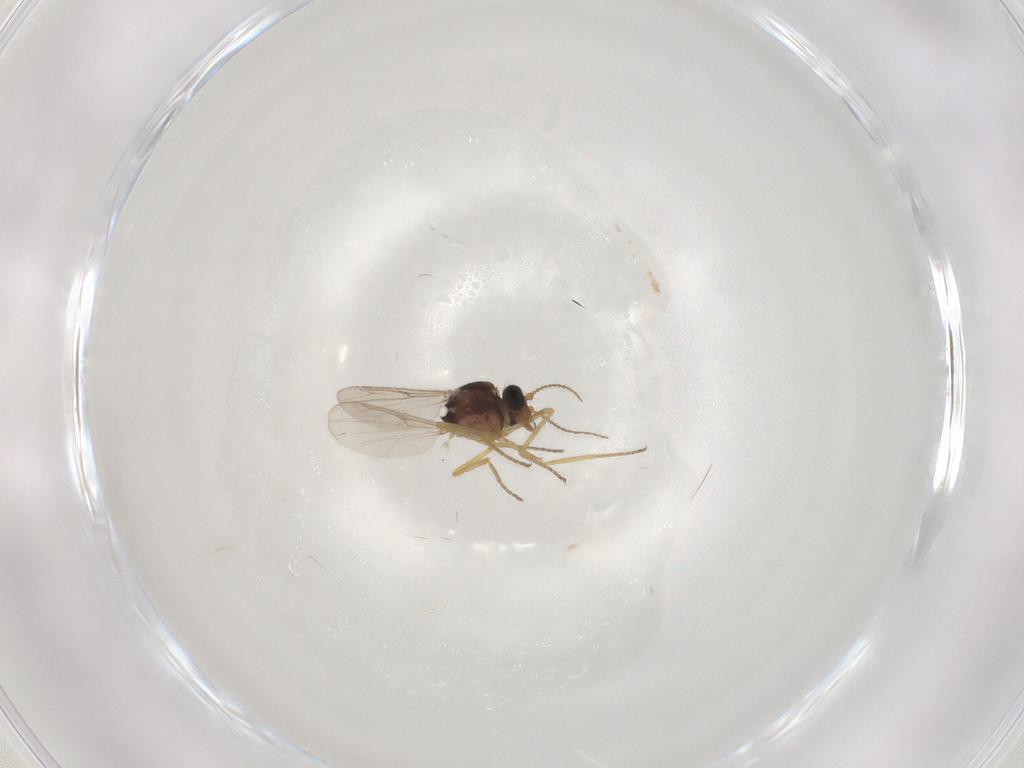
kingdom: Animalia
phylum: Arthropoda
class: Insecta
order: Diptera
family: Ceratopogonidae
